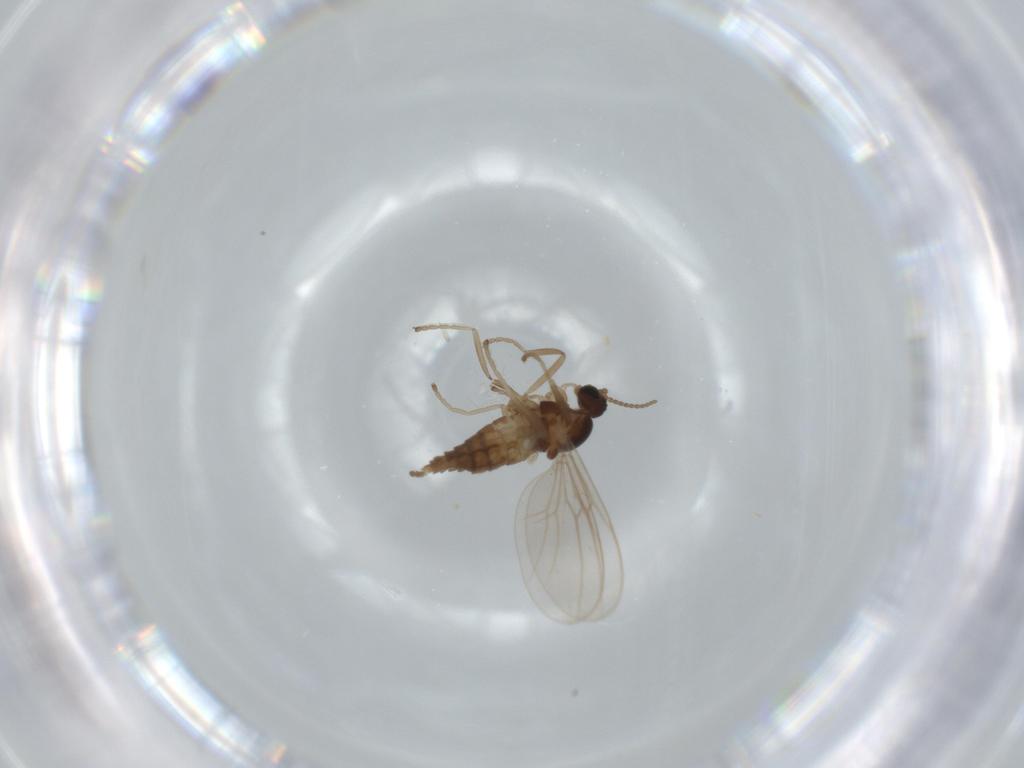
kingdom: Animalia
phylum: Arthropoda
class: Insecta
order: Diptera
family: Cecidomyiidae
